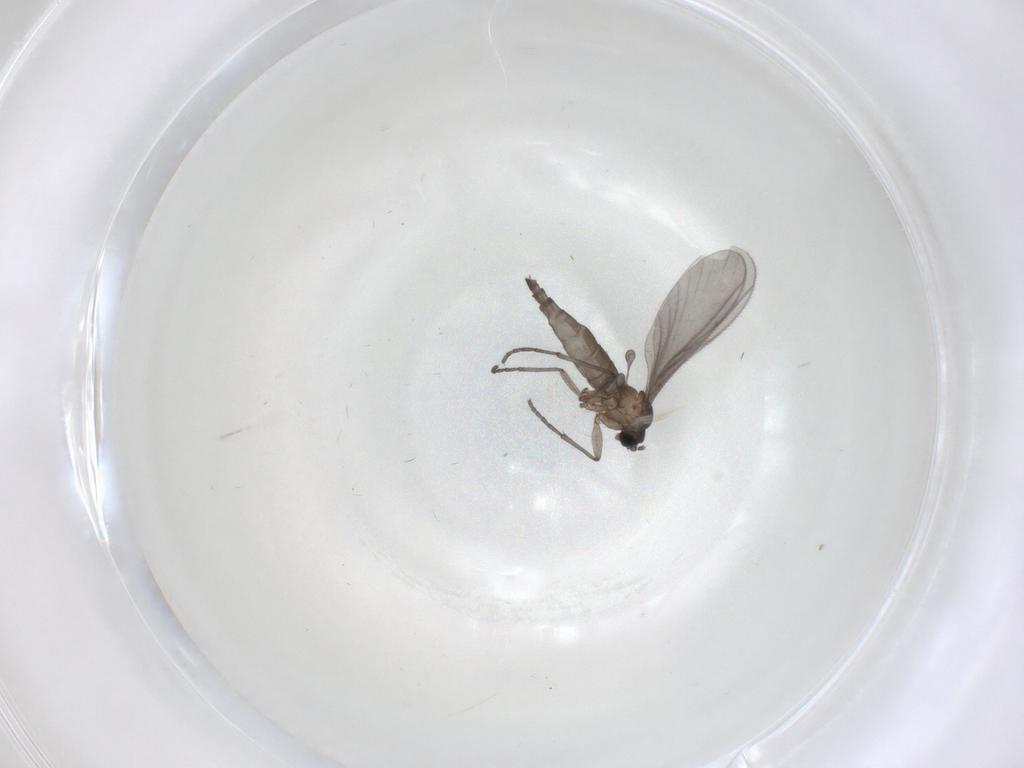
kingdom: Animalia
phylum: Arthropoda
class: Insecta
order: Diptera
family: Sciaridae
